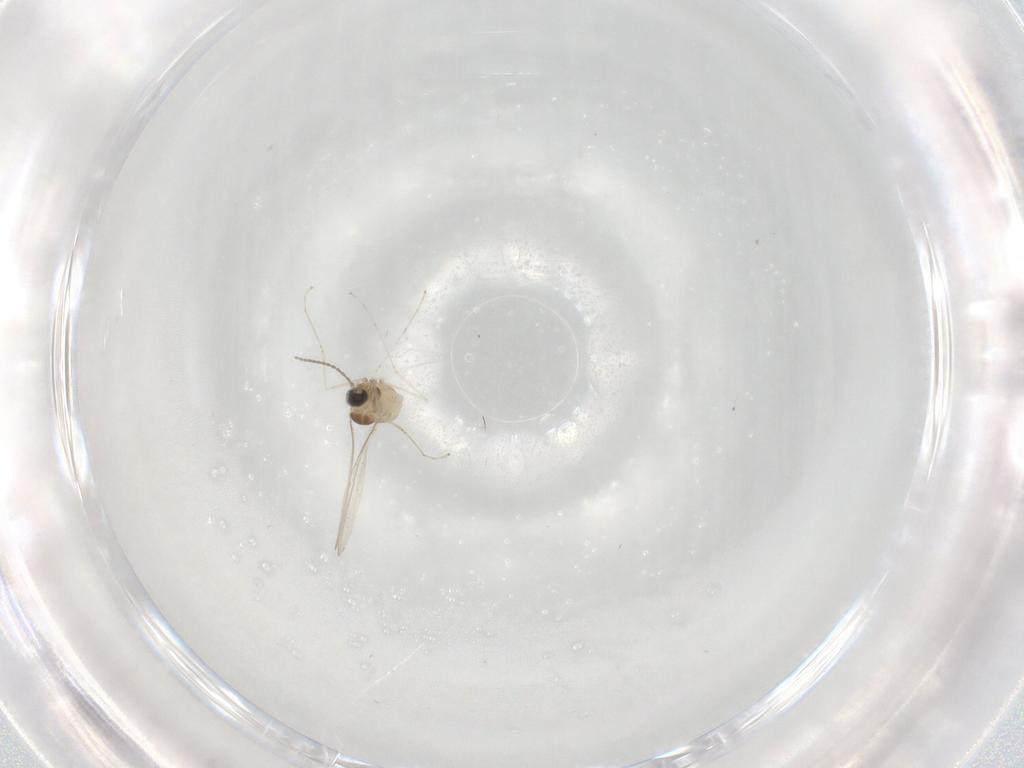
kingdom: Animalia
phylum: Arthropoda
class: Insecta
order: Diptera
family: Cecidomyiidae
